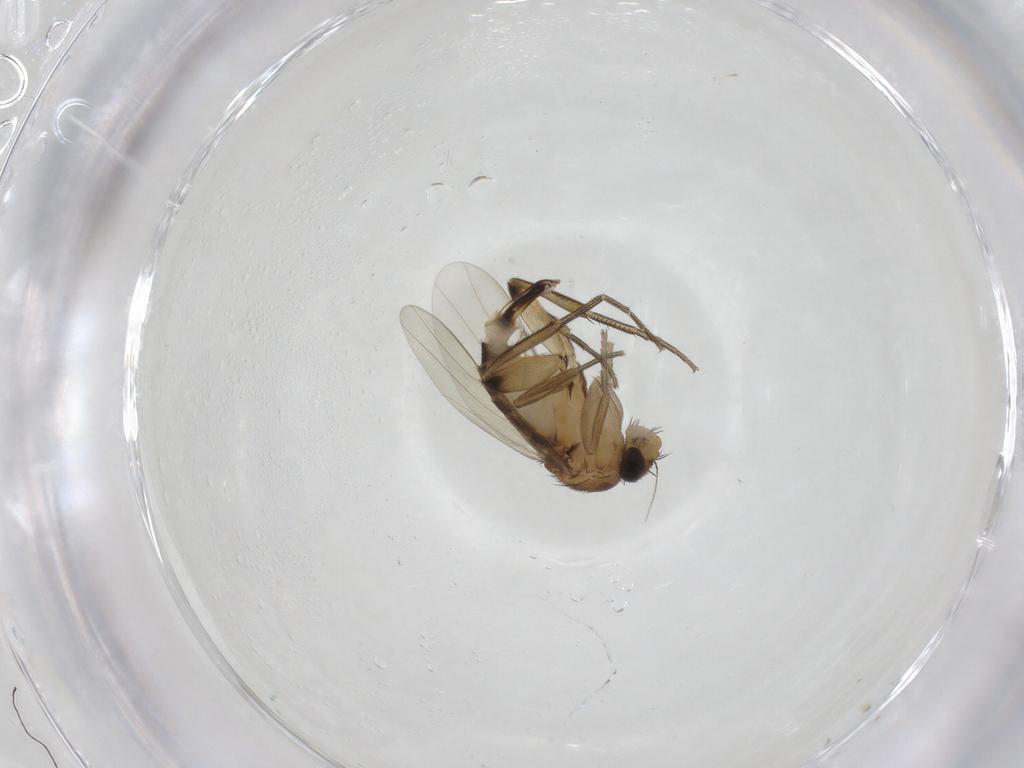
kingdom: Animalia
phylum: Arthropoda
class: Insecta
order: Diptera
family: Phoridae
